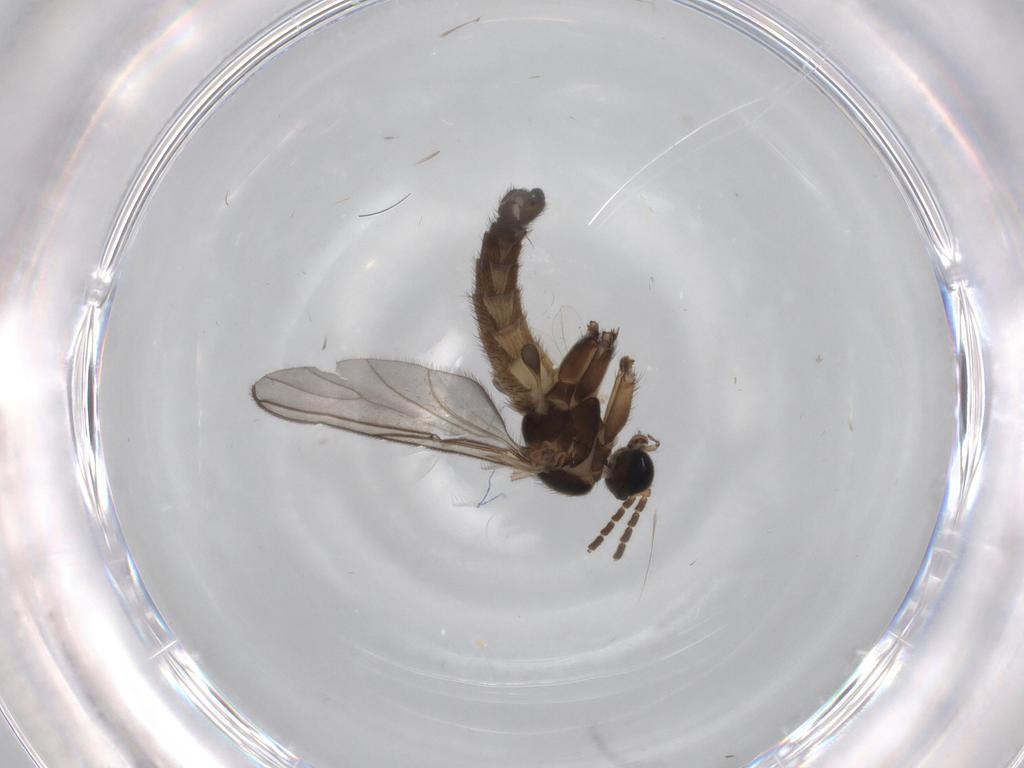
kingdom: Animalia
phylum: Arthropoda
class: Insecta
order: Diptera
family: Sciaridae
